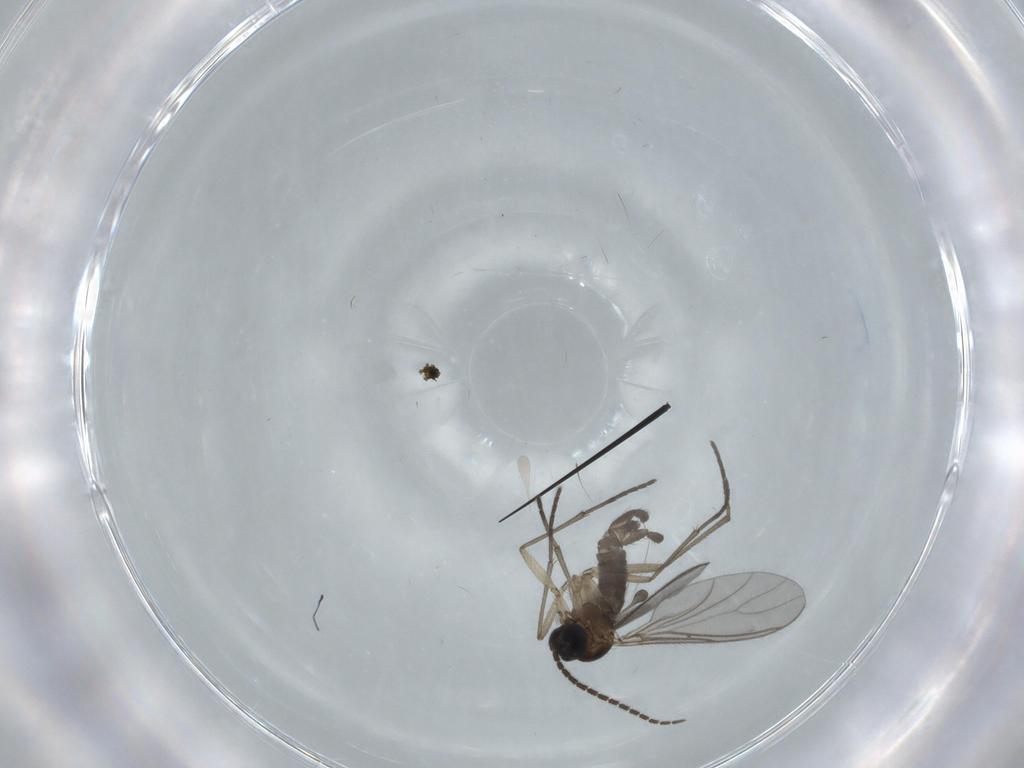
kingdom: Animalia
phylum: Arthropoda
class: Insecta
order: Diptera
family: Sciaridae
